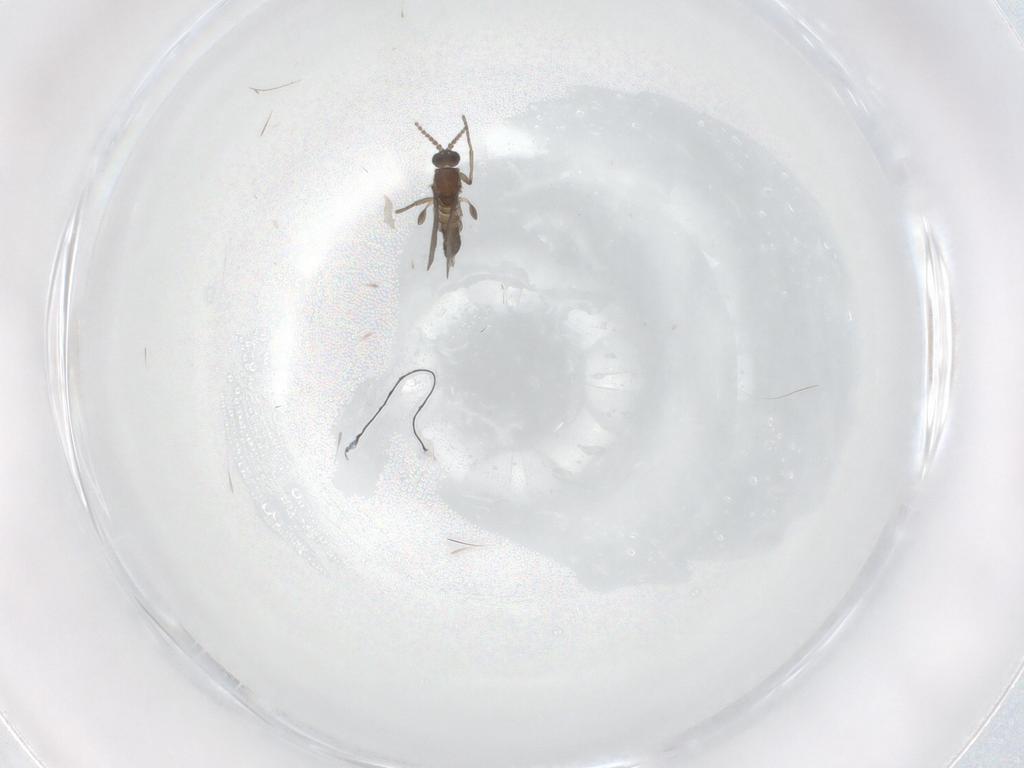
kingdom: Animalia
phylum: Arthropoda
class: Insecta
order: Diptera
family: Sciaridae
